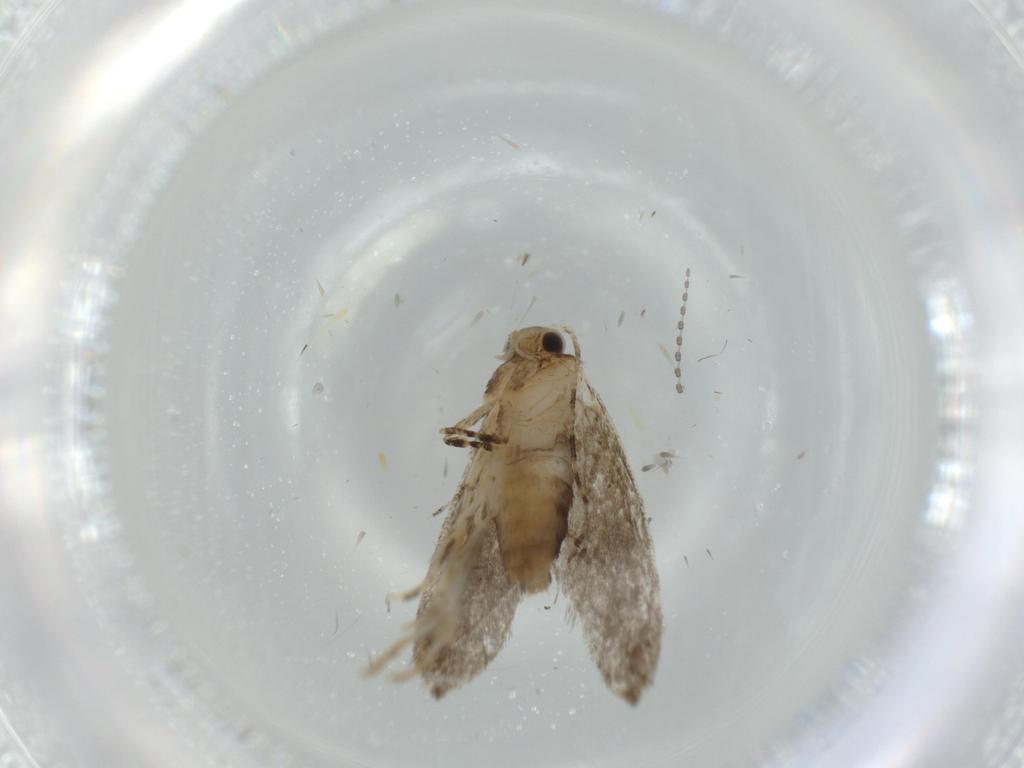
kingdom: Animalia
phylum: Arthropoda
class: Insecta
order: Lepidoptera
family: Tineidae
